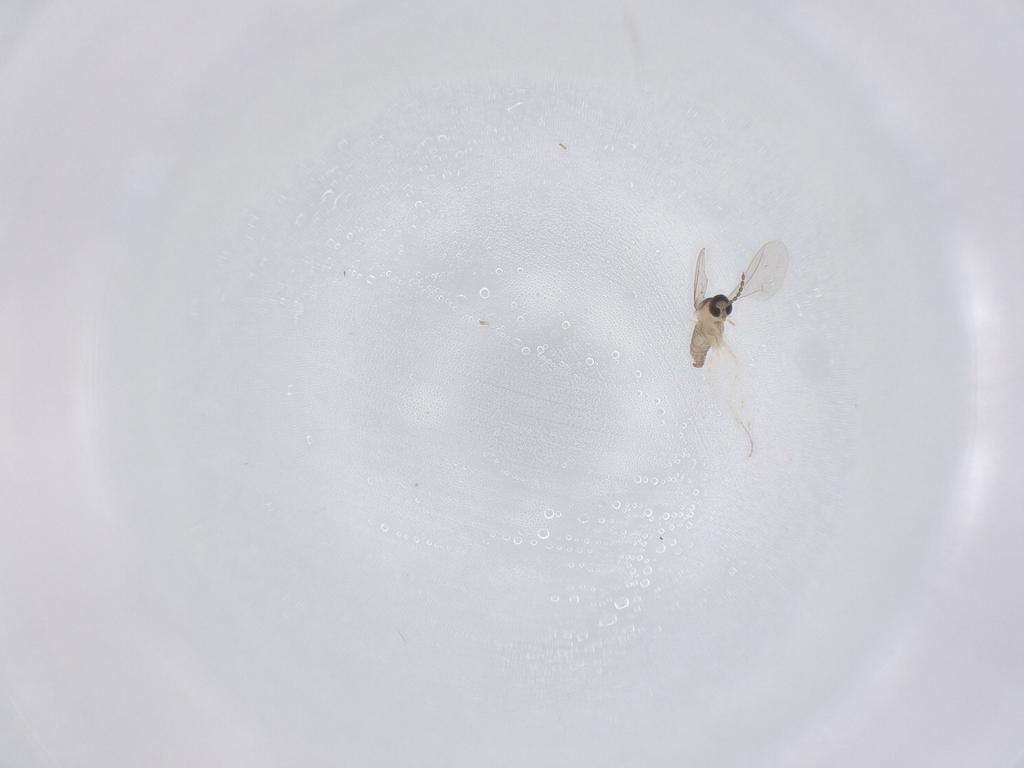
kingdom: Animalia
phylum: Arthropoda
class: Insecta
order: Diptera
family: Cecidomyiidae
